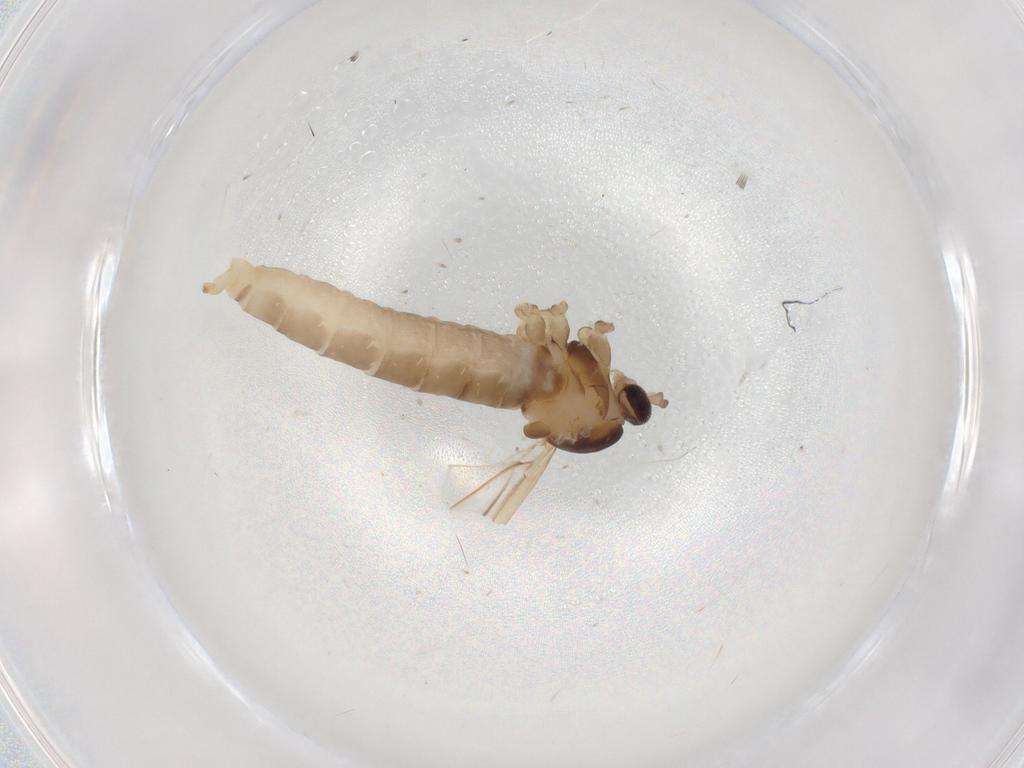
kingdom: Animalia
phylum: Arthropoda
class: Insecta
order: Diptera
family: Cecidomyiidae
